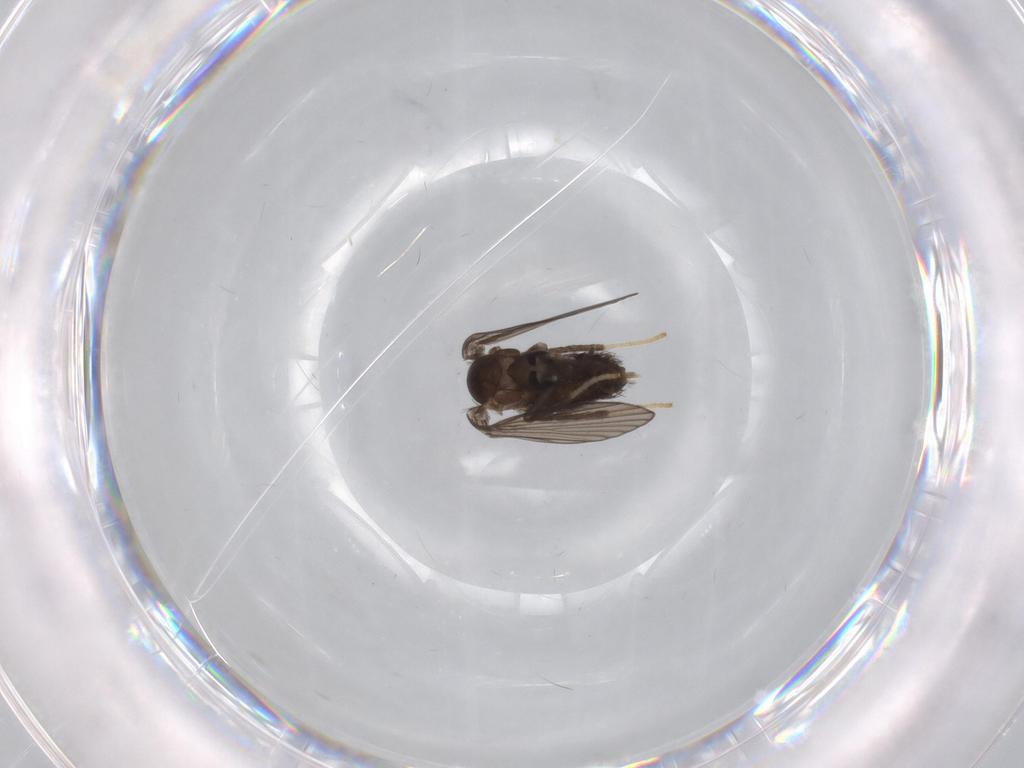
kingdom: Animalia
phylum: Arthropoda
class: Insecta
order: Diptera
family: Psychodidae
